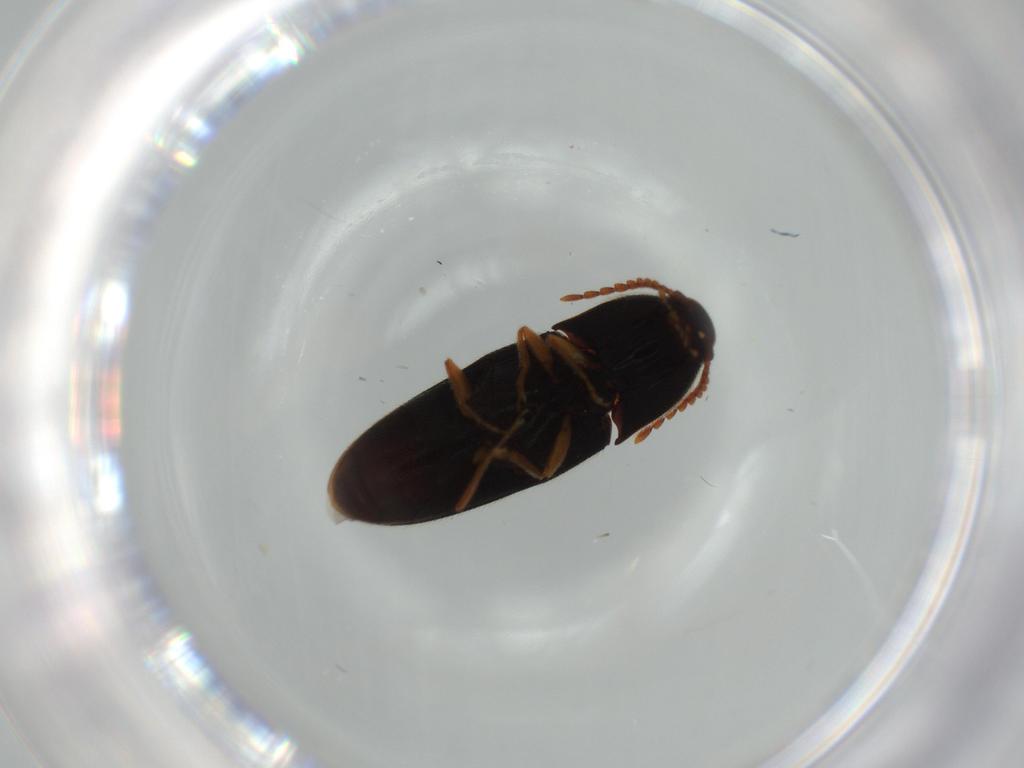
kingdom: Animalia
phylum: Arthropoda
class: Insecta
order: Coleoptera
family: Elateridae
